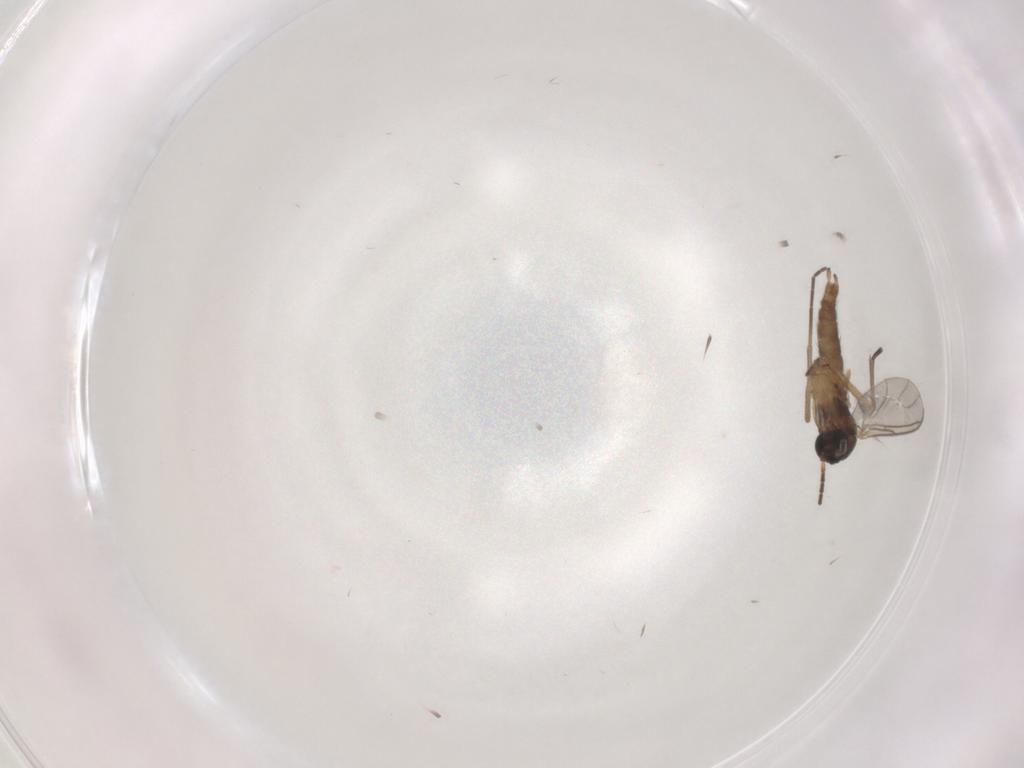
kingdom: Animalia
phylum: Arthropoda
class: Insecta
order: Diptera
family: Sciaridae
